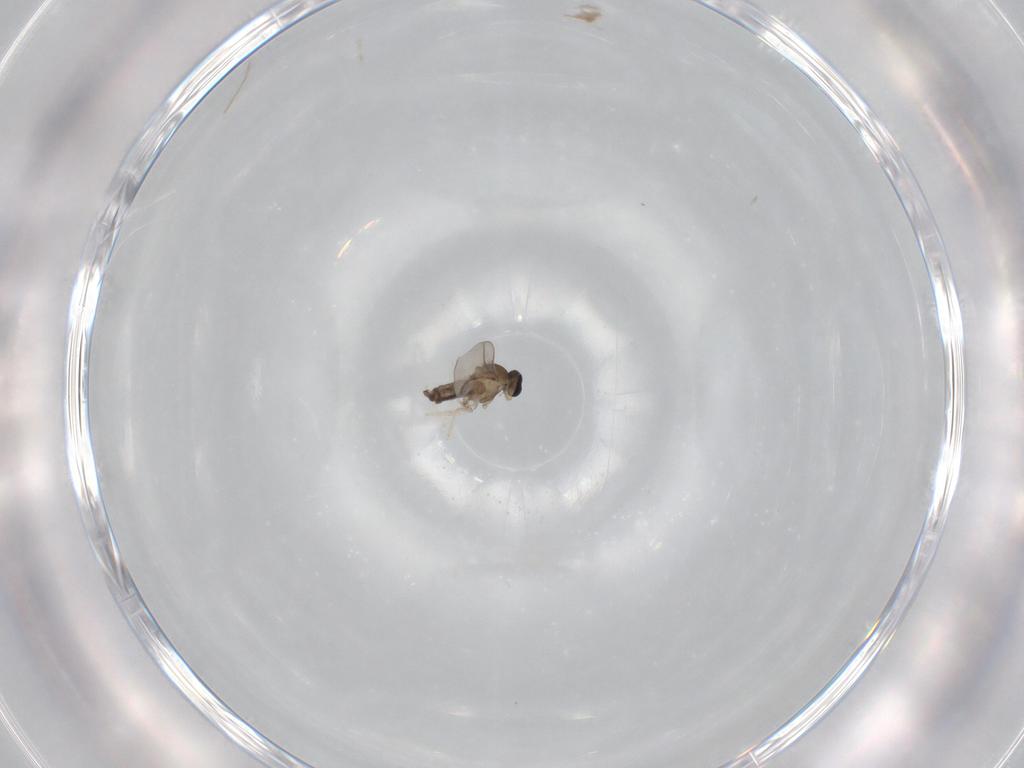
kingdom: Animalia
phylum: Arthropoda
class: Insecta
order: Diptera
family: Cecidomyiidae
